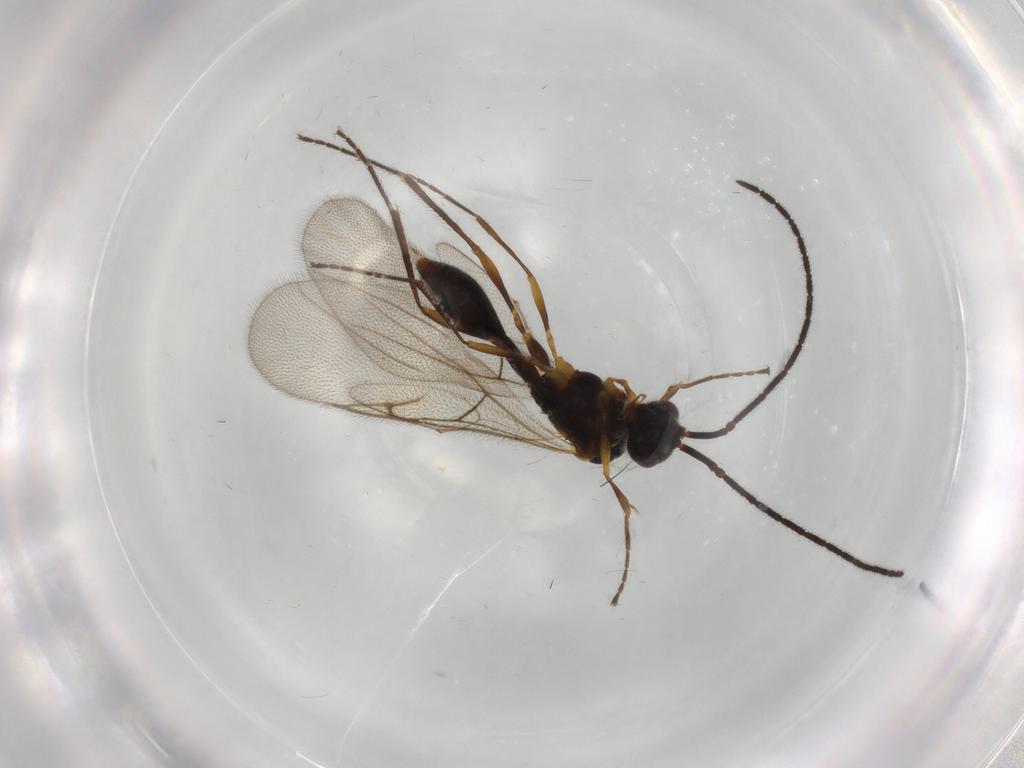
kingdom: Animalia
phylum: Arthropoda
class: Insecta
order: Hymenoptera
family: Diapriidae
